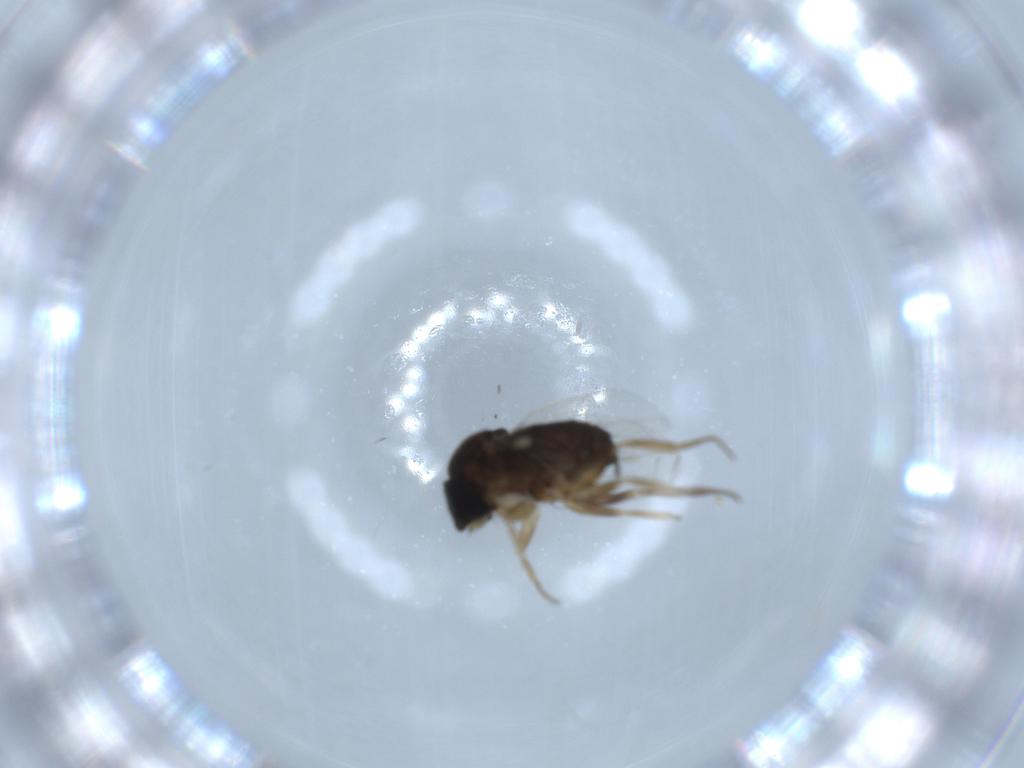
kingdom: Animalia
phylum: Arthropoda
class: Insecta
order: Diptera
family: Phoridae
